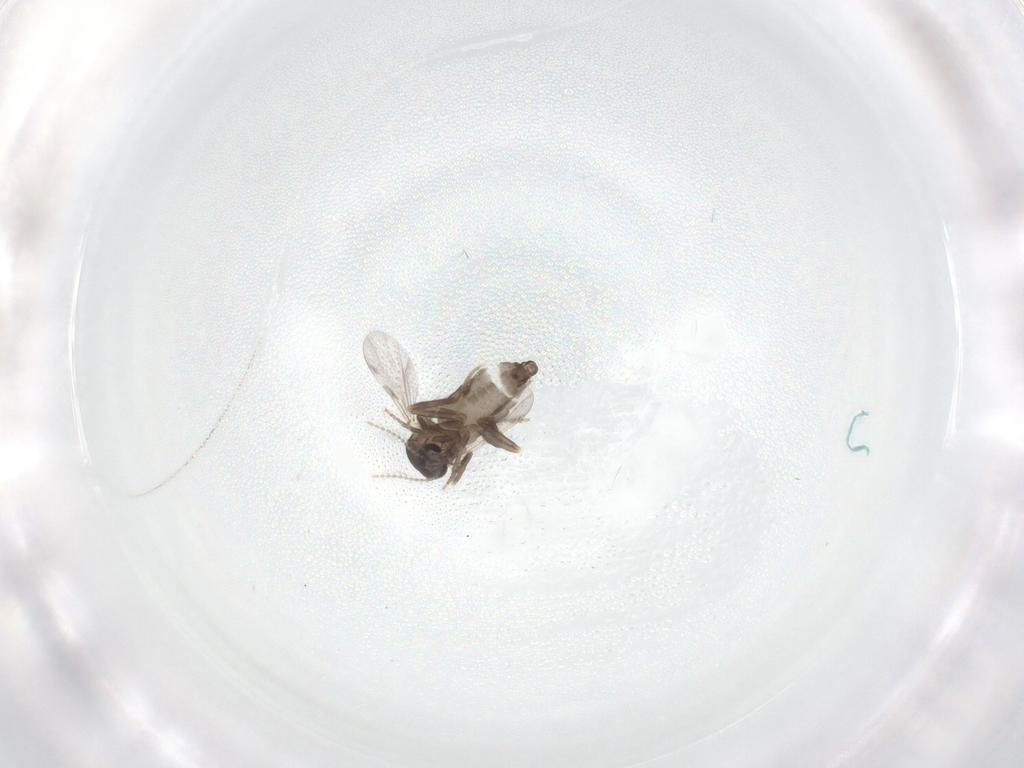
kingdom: Animalia
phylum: Arthropoda
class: Insecta
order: Diptera
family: Ceratopogonidae
